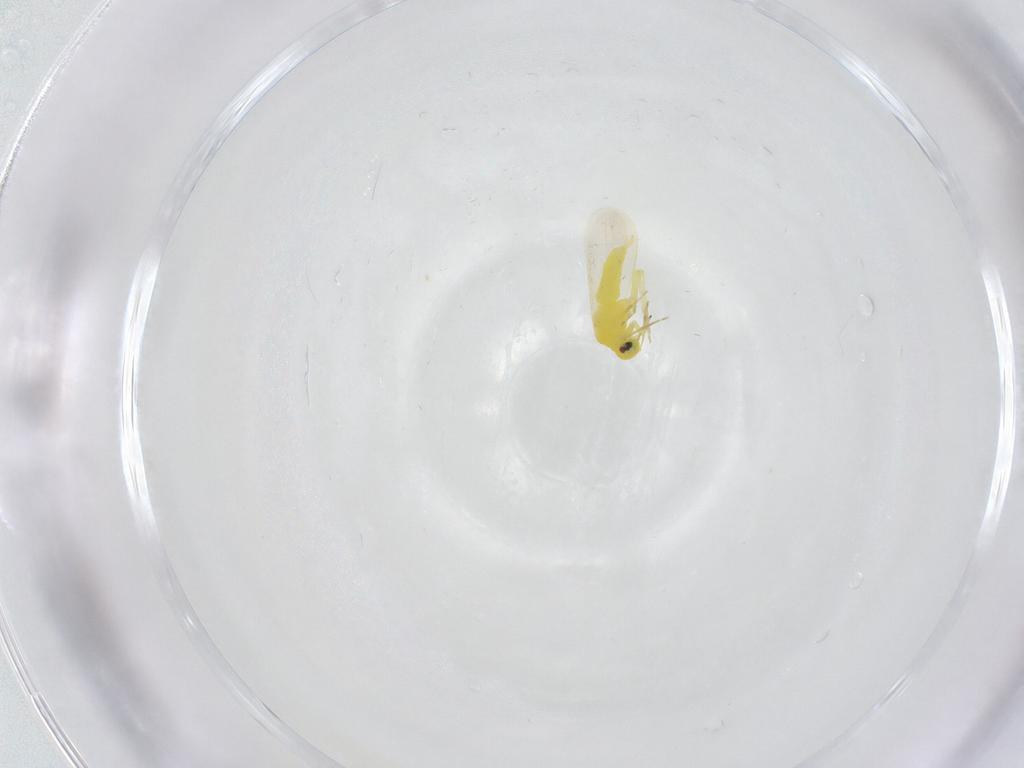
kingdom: Animalia
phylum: Arthropoda
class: Insecta
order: Hemiptera
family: Aleyrodidae
